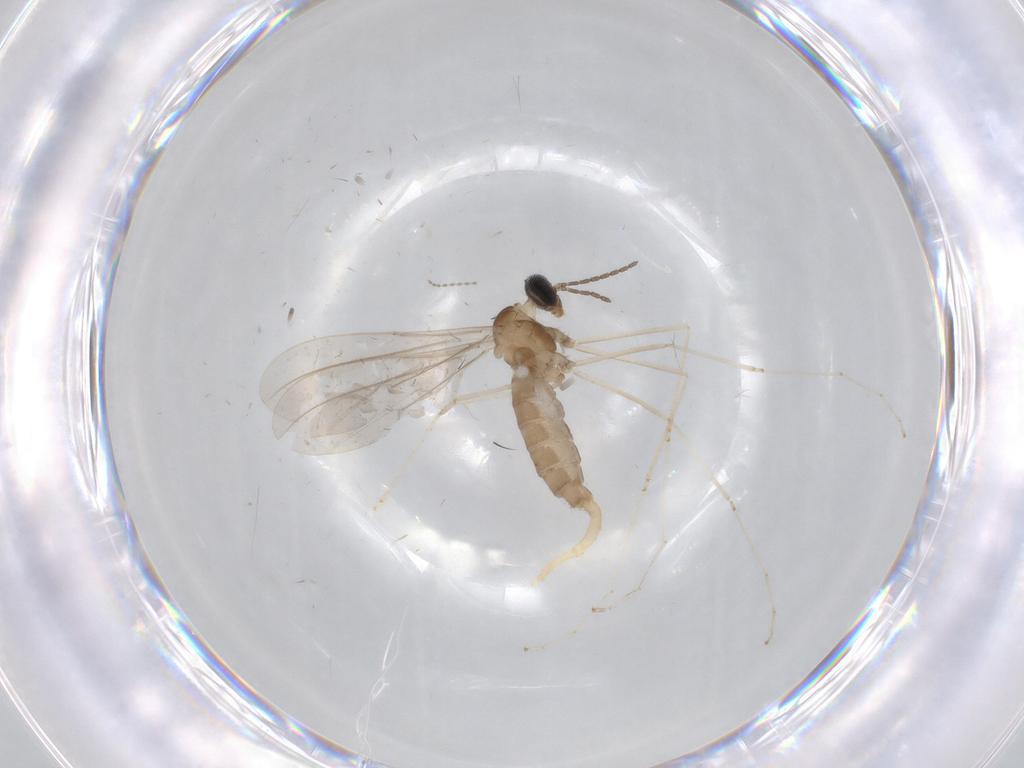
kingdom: Animalia
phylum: Arthropoda
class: Insecta
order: Diptera
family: Cecidomyiidae
